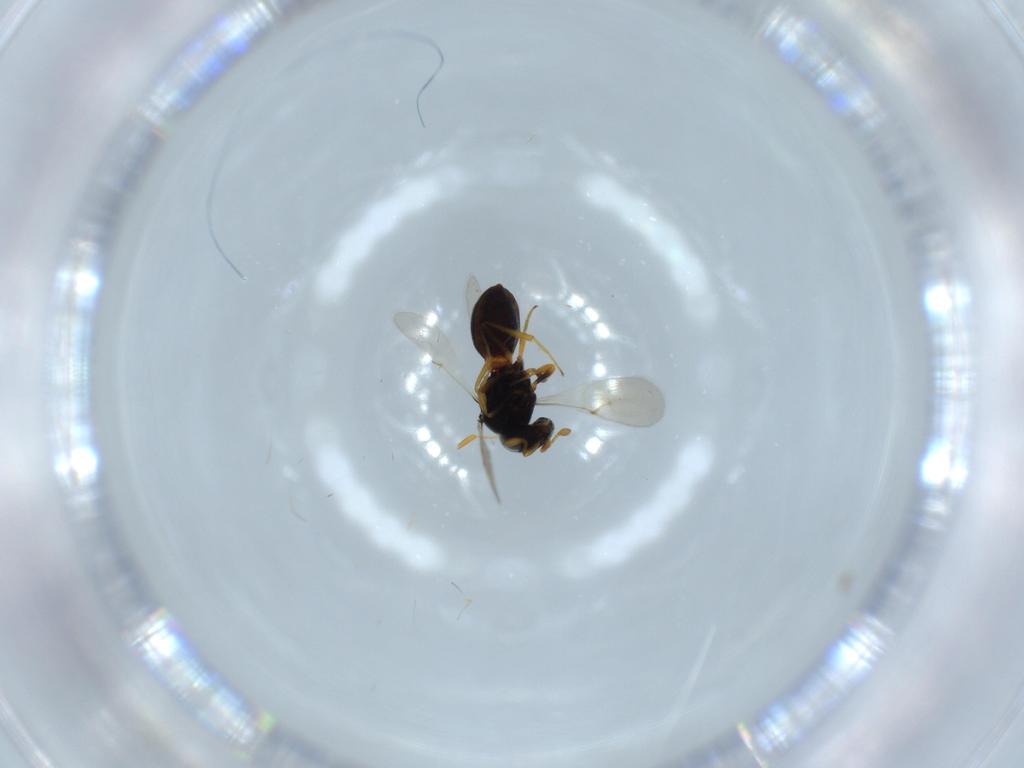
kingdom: Animalia
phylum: Arthropoda
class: Insecta
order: Hymenoptera
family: Scelionidae
